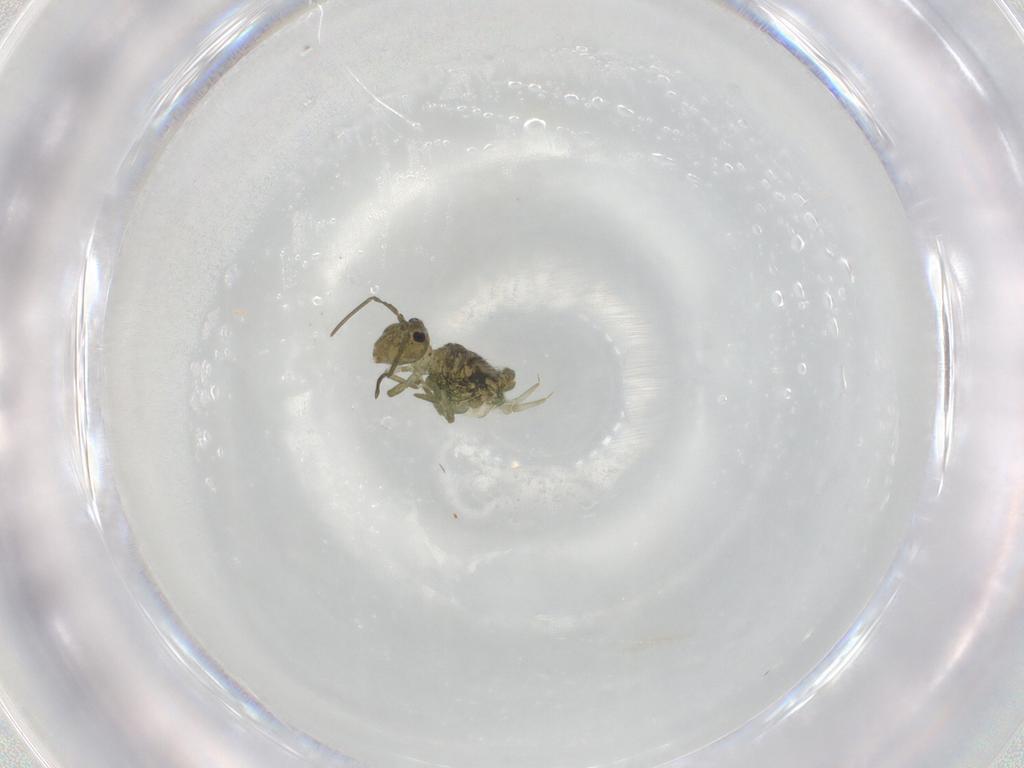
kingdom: Animalia
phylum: Arthropoda
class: Collembola
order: Symphypleona
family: Sminthuridae
